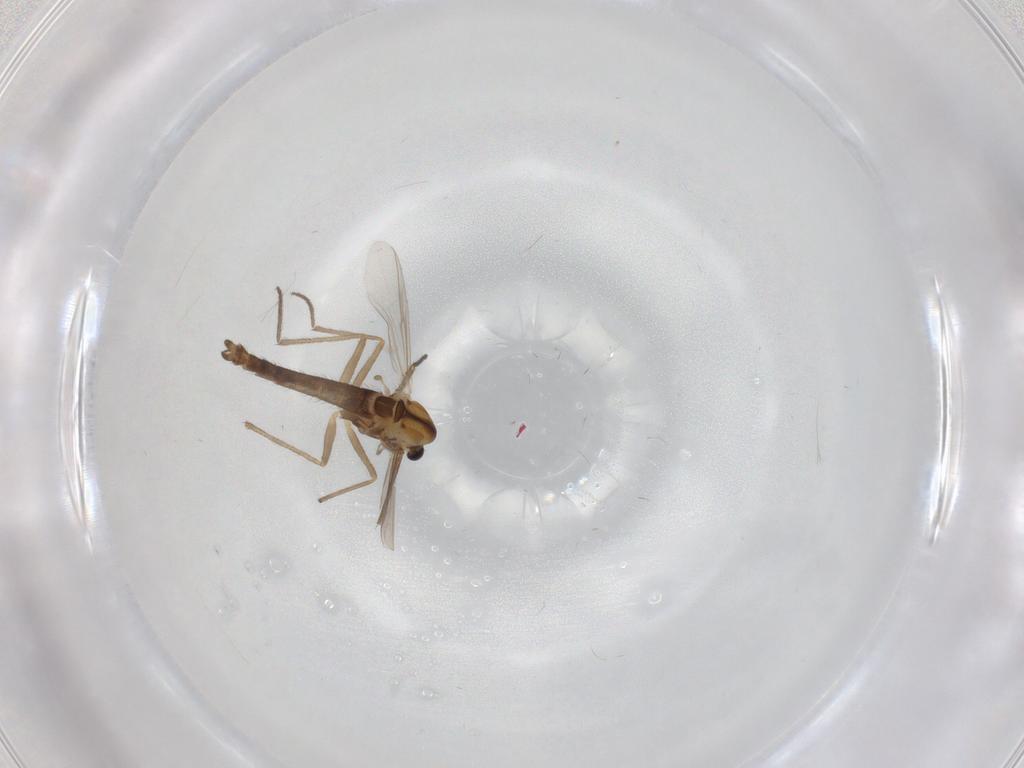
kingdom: Animalia
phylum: Arthropoda
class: Insecta
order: Diptera
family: Chironomidae
